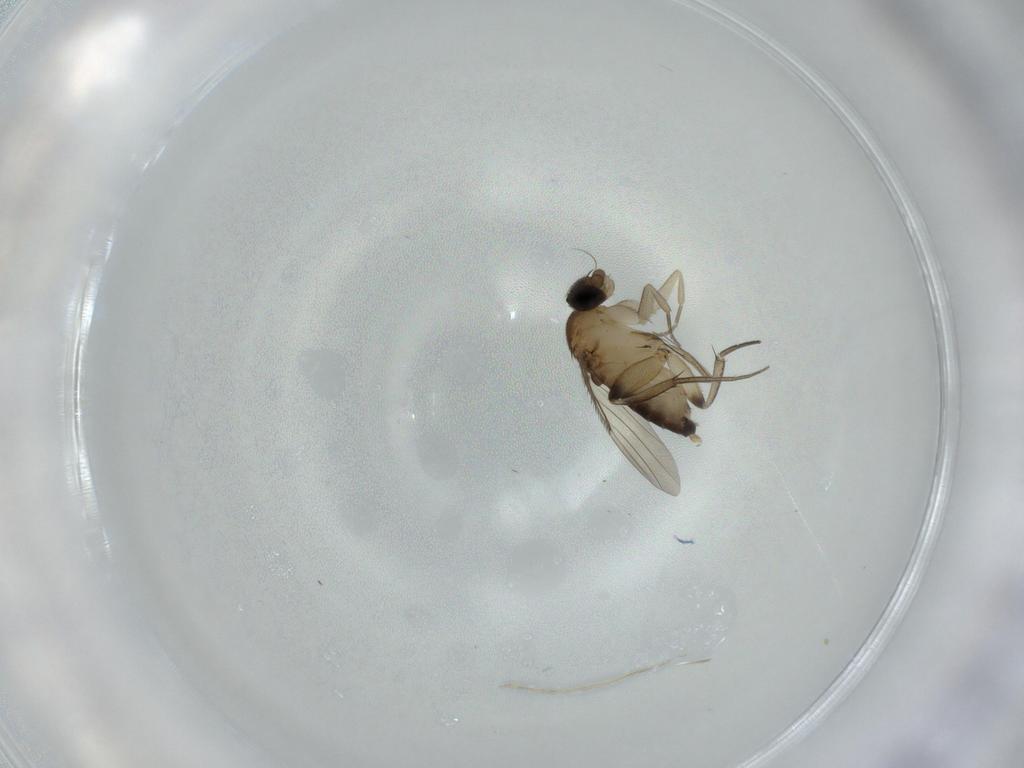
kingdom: Animalia
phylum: Arthropoda
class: Insecta
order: Diptera
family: Phoridae
